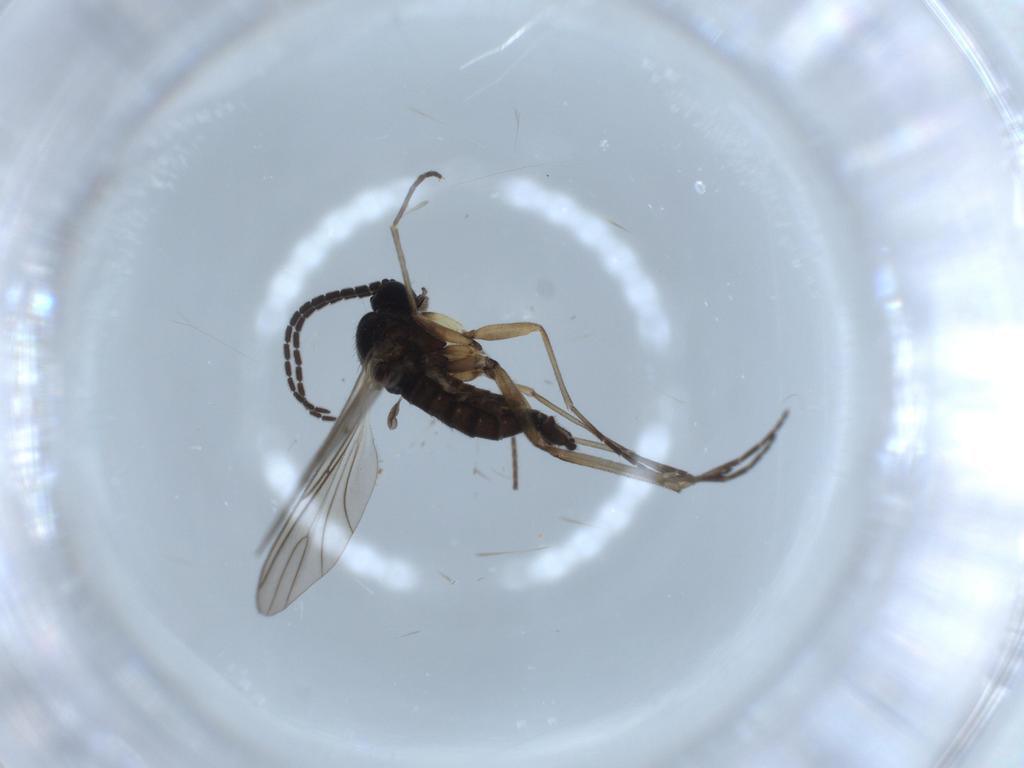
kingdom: Animalia
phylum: Arthropoda
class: Insecta
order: Diptera
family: Sciaridae
